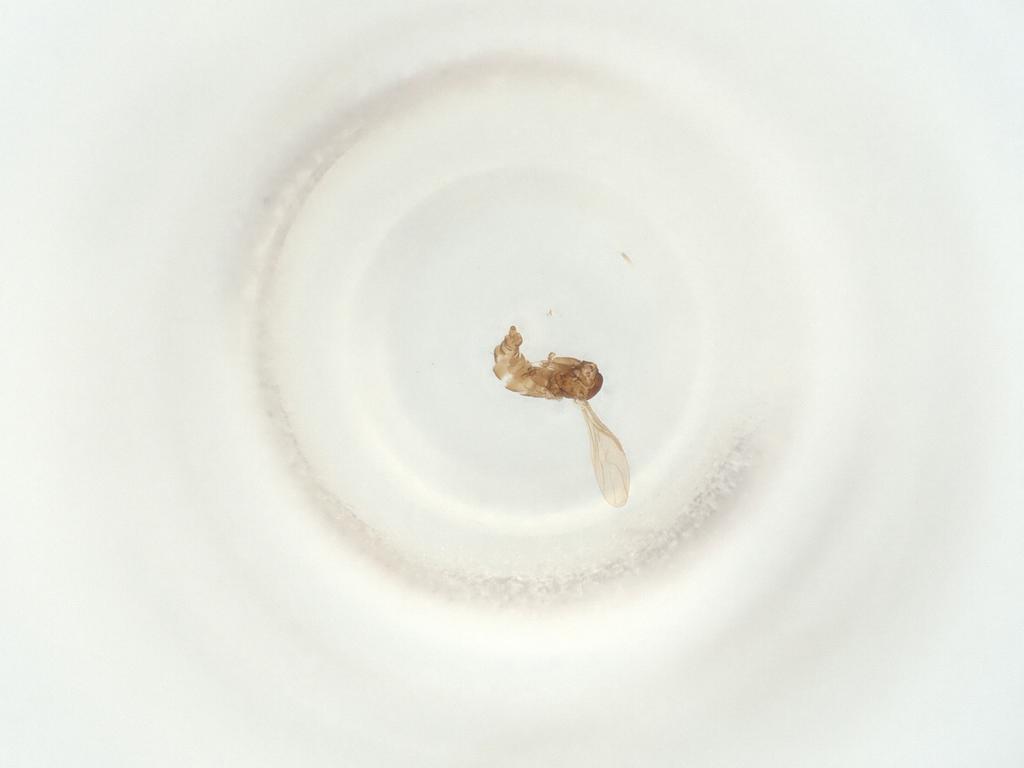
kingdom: Animalia
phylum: Arthropoda
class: Insecta
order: Diptera
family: Sciaridae
